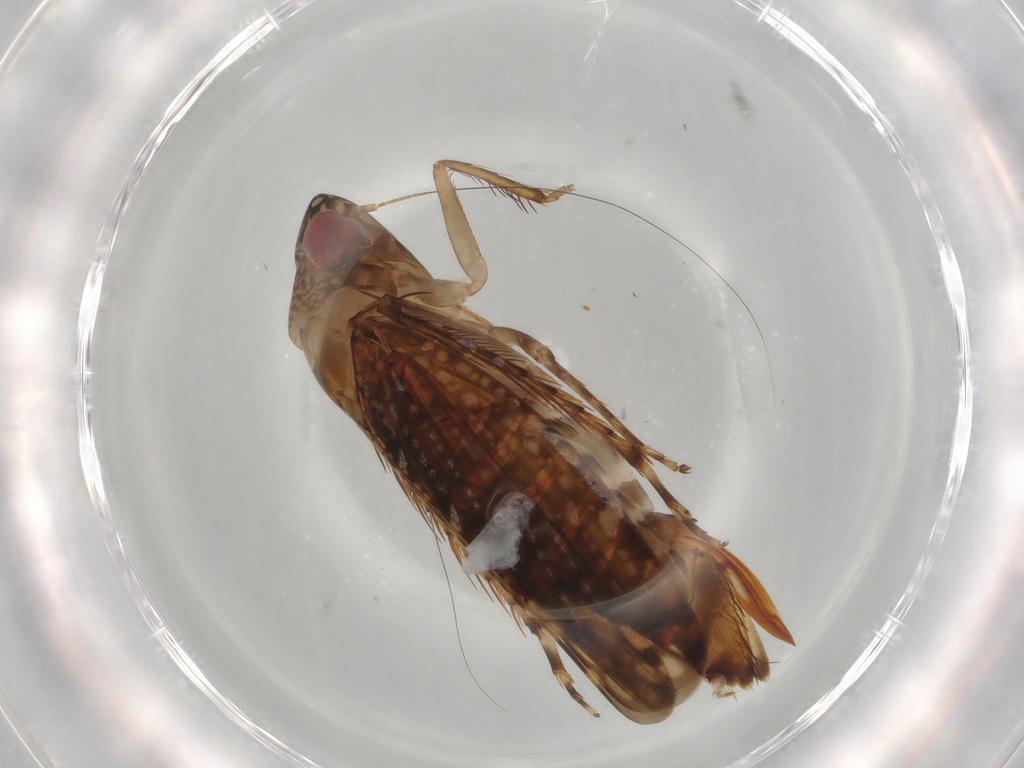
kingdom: Animalia
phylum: Arthropoda
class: Insecta
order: Hemiptera
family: Cicadellidae
